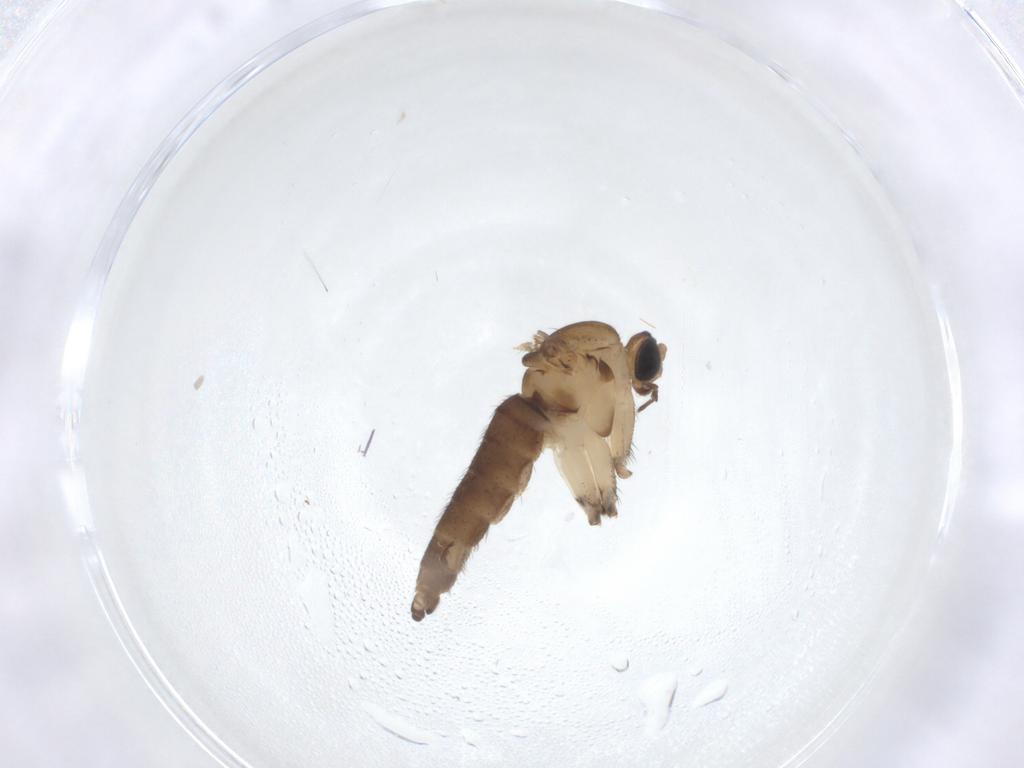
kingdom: Animalia
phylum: Arthropoda
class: Insecta
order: Diptera
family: Sciaridae
